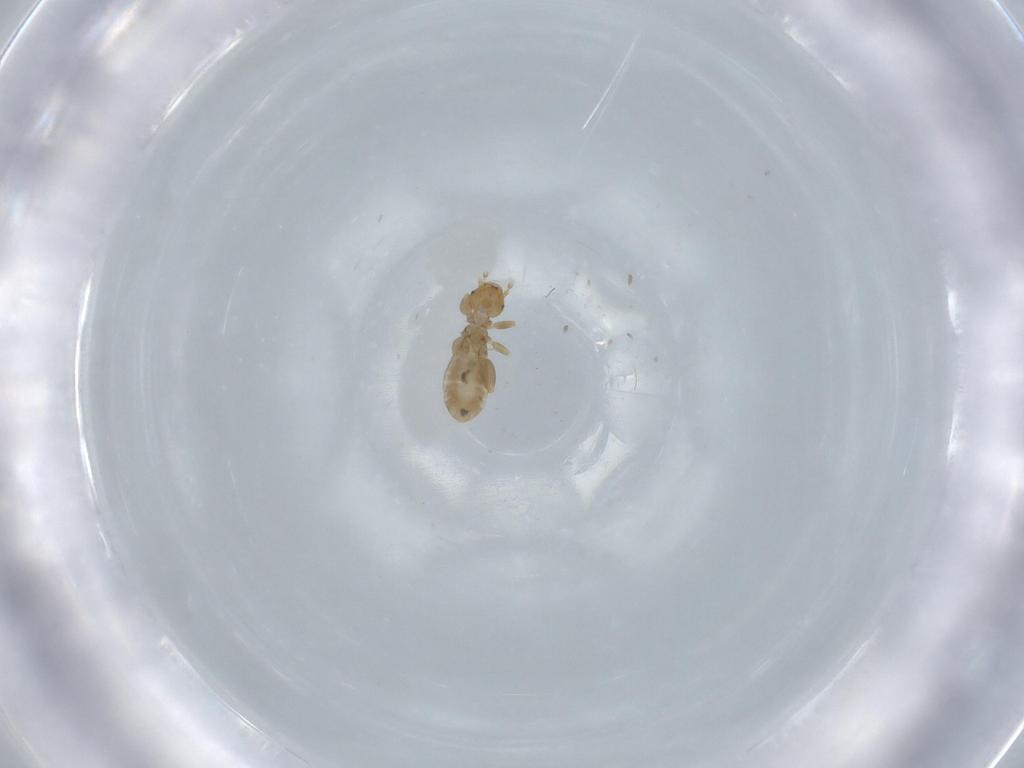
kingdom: Animalia
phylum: Arthropoda
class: Insecta
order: Psocodea
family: Liposcelididae
